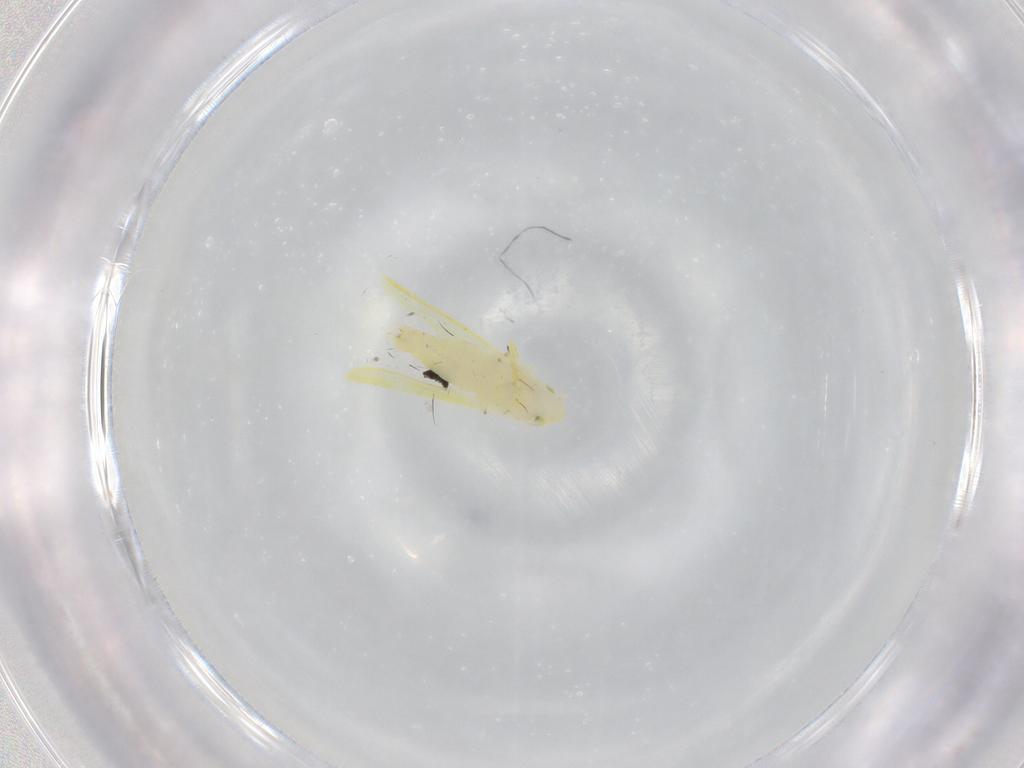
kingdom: Animalia
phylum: Arthropoda
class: Insecta
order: Hemiptera
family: Cicadellidae
